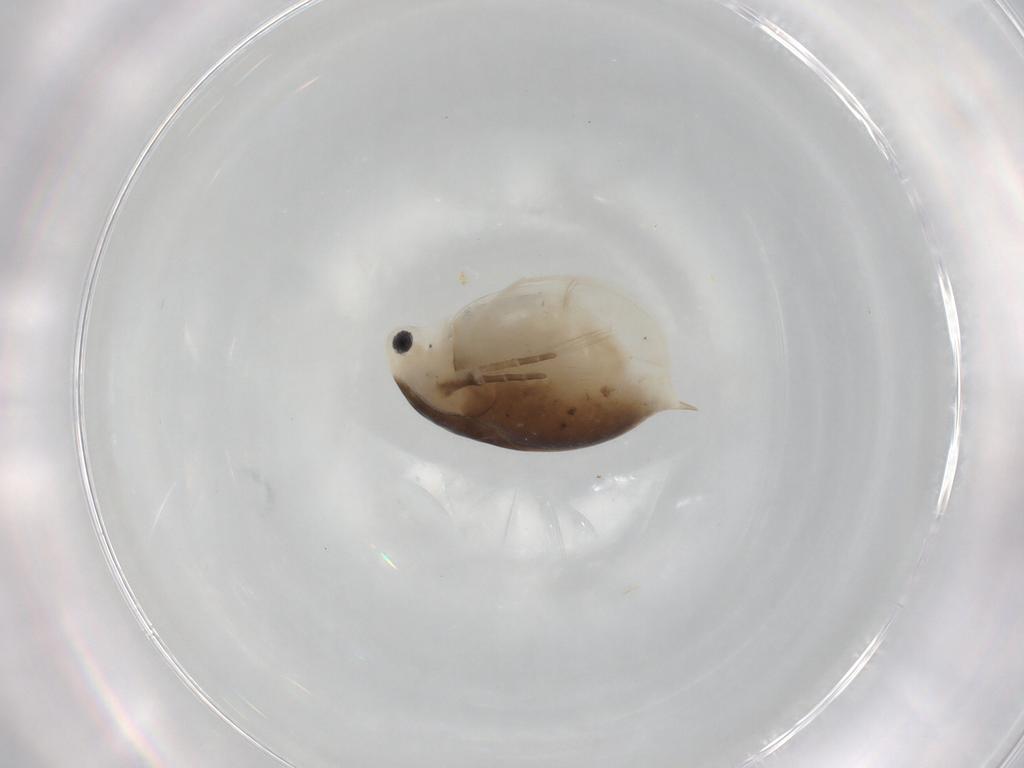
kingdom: Animalia
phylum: Arthropoda
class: Branchiopoda
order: Diplostraca
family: Daphniidae
